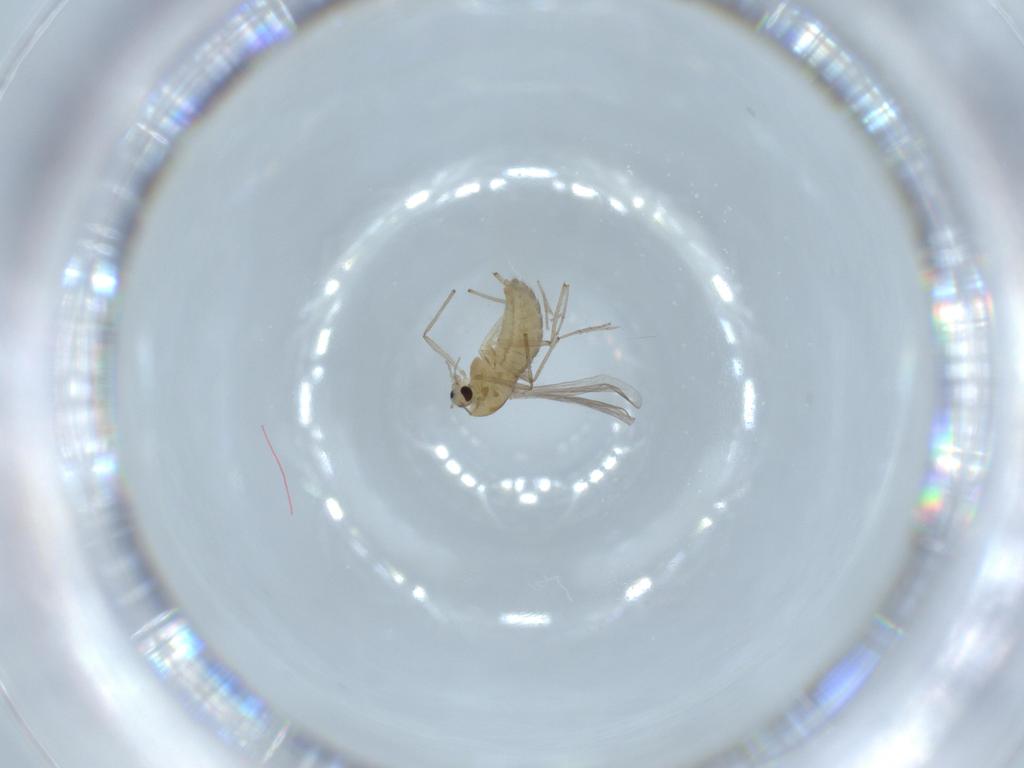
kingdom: Animalia
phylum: Arthropoda
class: Insecta
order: Diptera
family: Chironomidae
